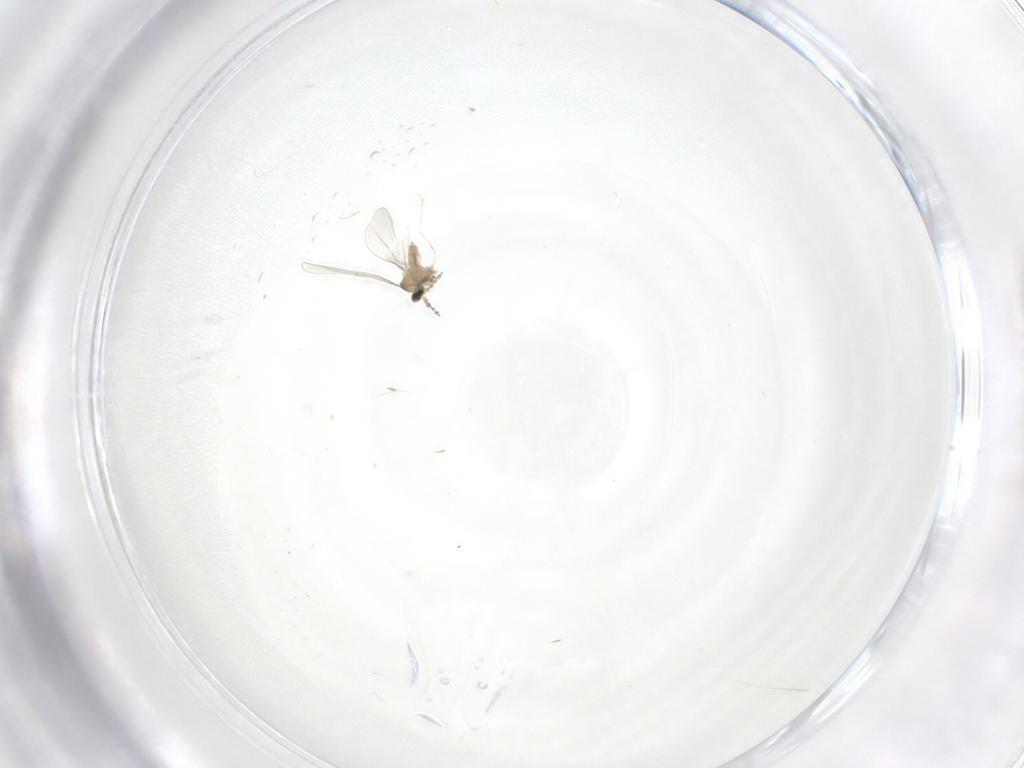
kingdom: Animalia
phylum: Arthropoda
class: Insecta
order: Diptera
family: Cecidomyiidae
